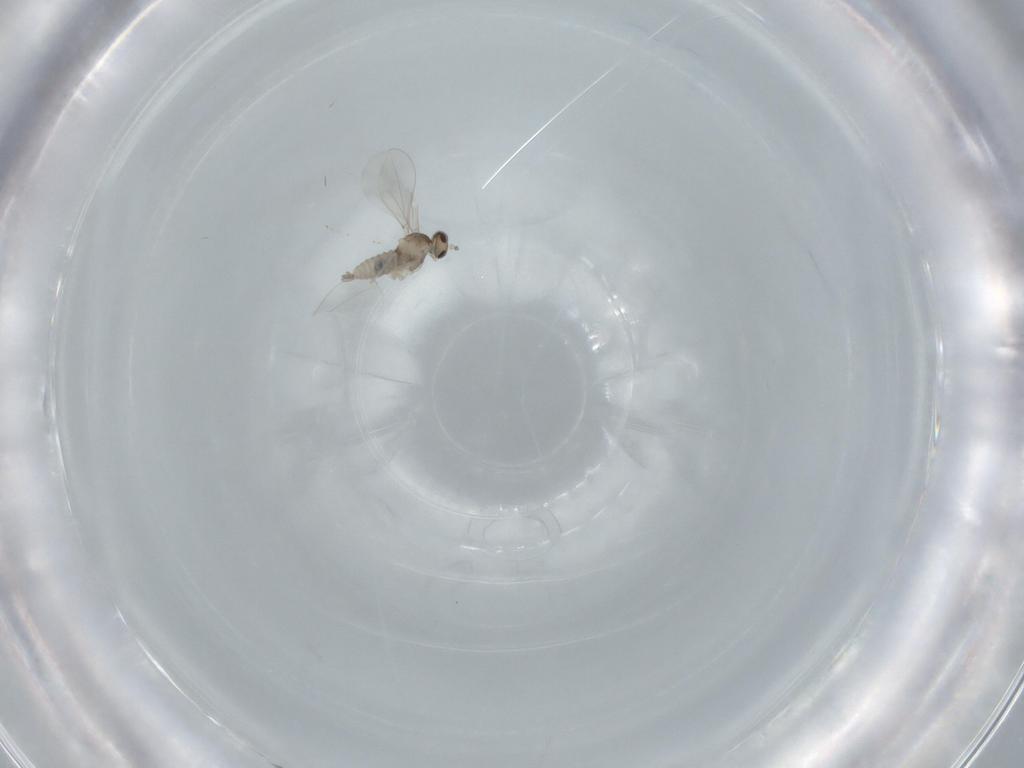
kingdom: Animalia
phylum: Arthropoda
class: Insecta
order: Diptera
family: Cecidomyiidae
